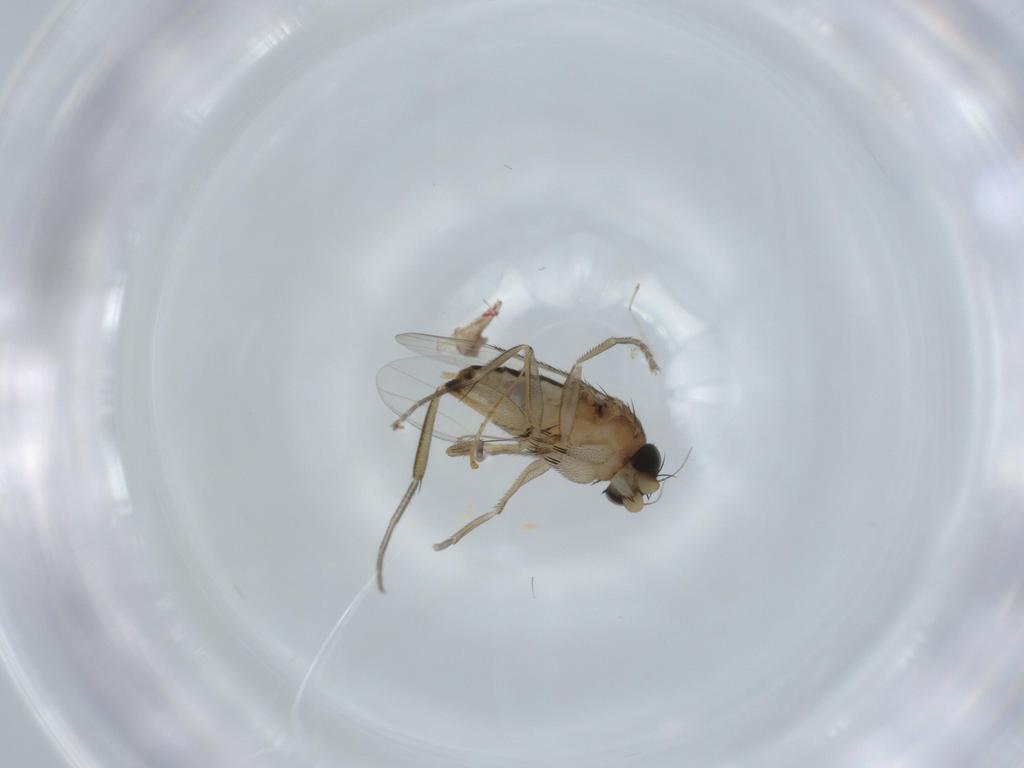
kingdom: Animalia
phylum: Arthropoda
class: Insecta
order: Diptera
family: Phoridae
